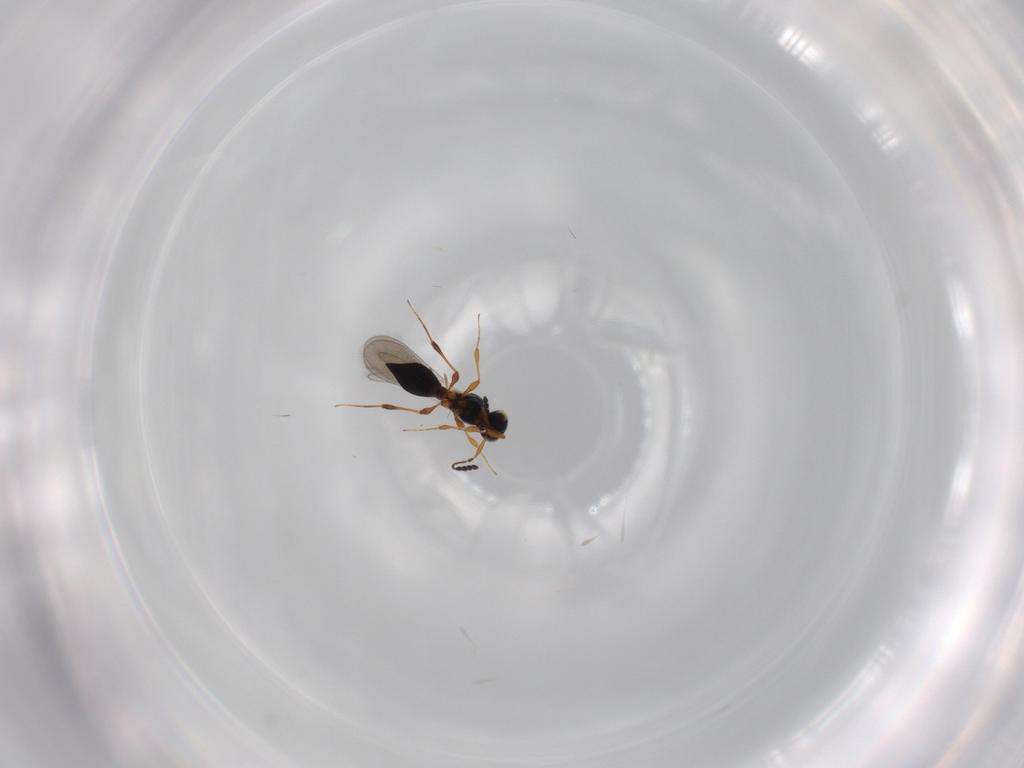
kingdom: Animalia
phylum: Arthropoda
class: Insecta
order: Hymenoptera
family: Platygastridae
